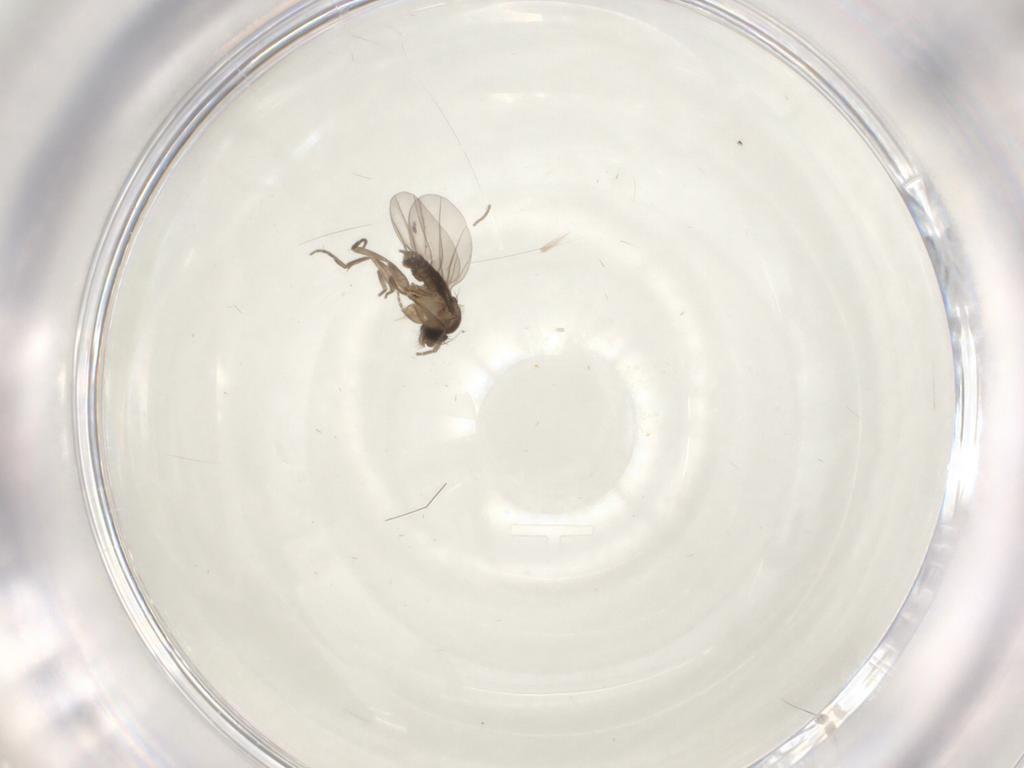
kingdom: Animalia
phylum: Arthropoda
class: Insecta
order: Diptera
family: Phoridae
